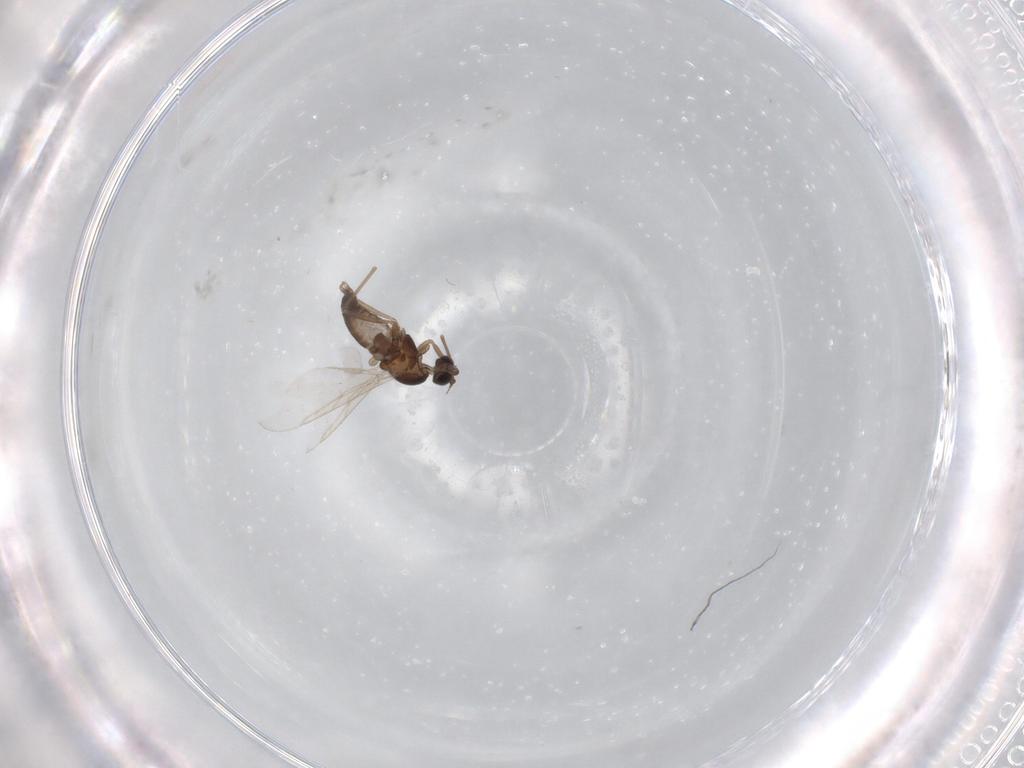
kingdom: Animalia
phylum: Arthropoda
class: Insecta
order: Diptera
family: Cecidomyiidae
